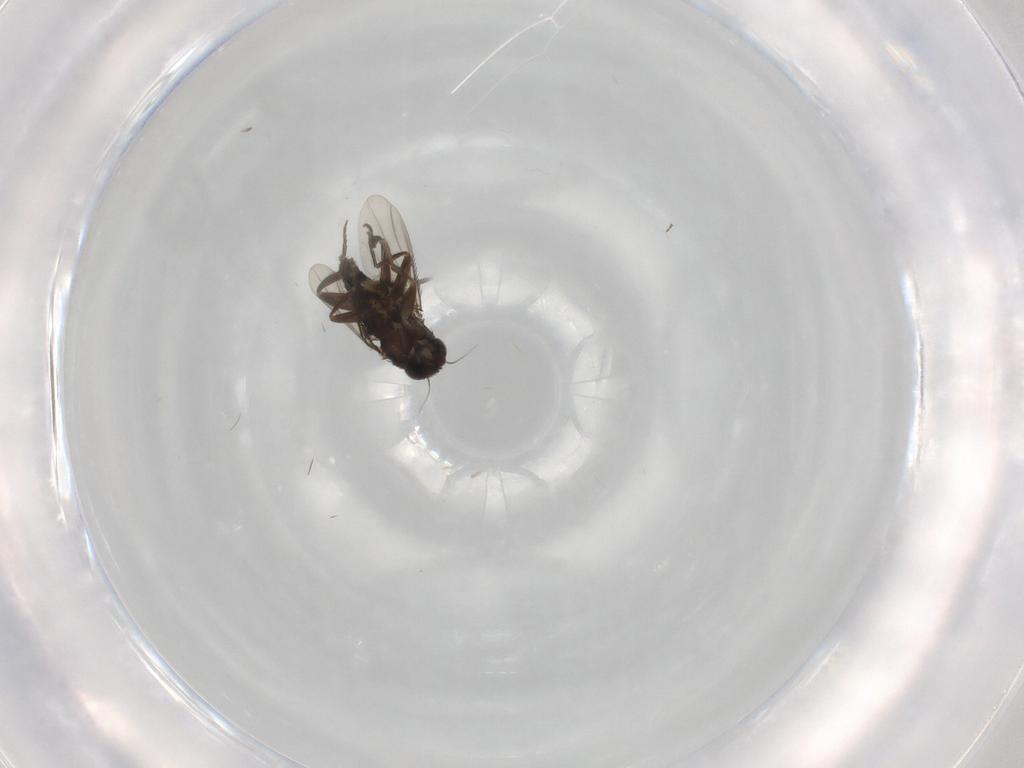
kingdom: Animalia
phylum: Arthropoda
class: Insecta
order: Diptera
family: Phoridae
